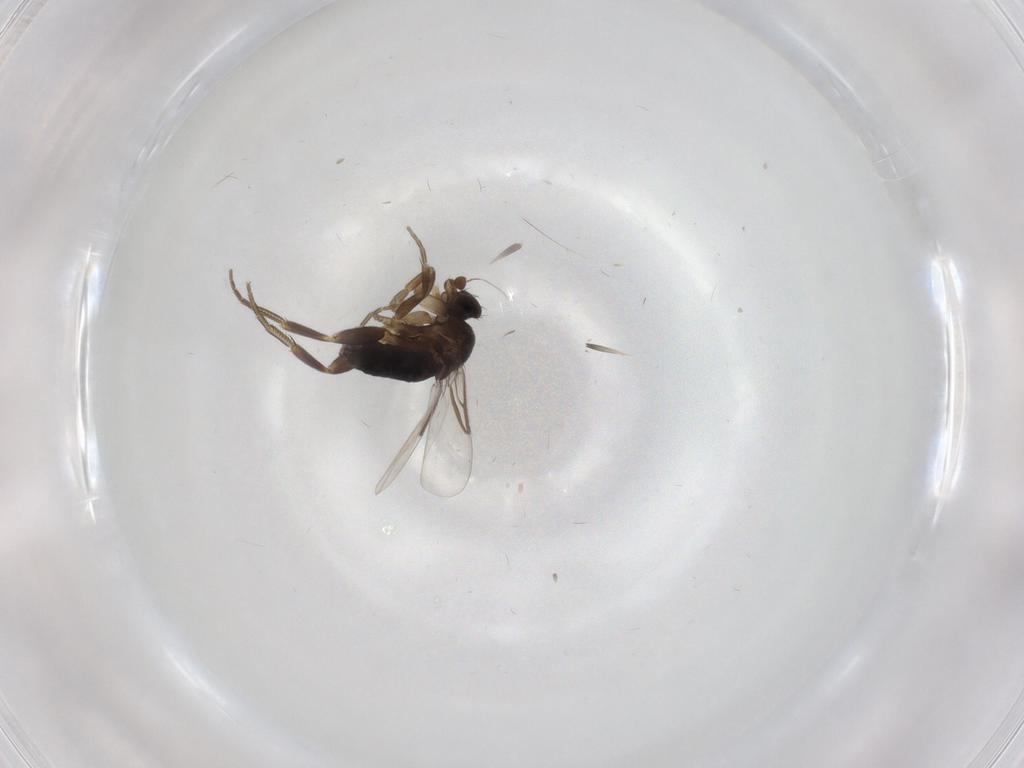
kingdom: Animalia
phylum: Arthropoda
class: Insecta
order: Diptera
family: Phoridae
